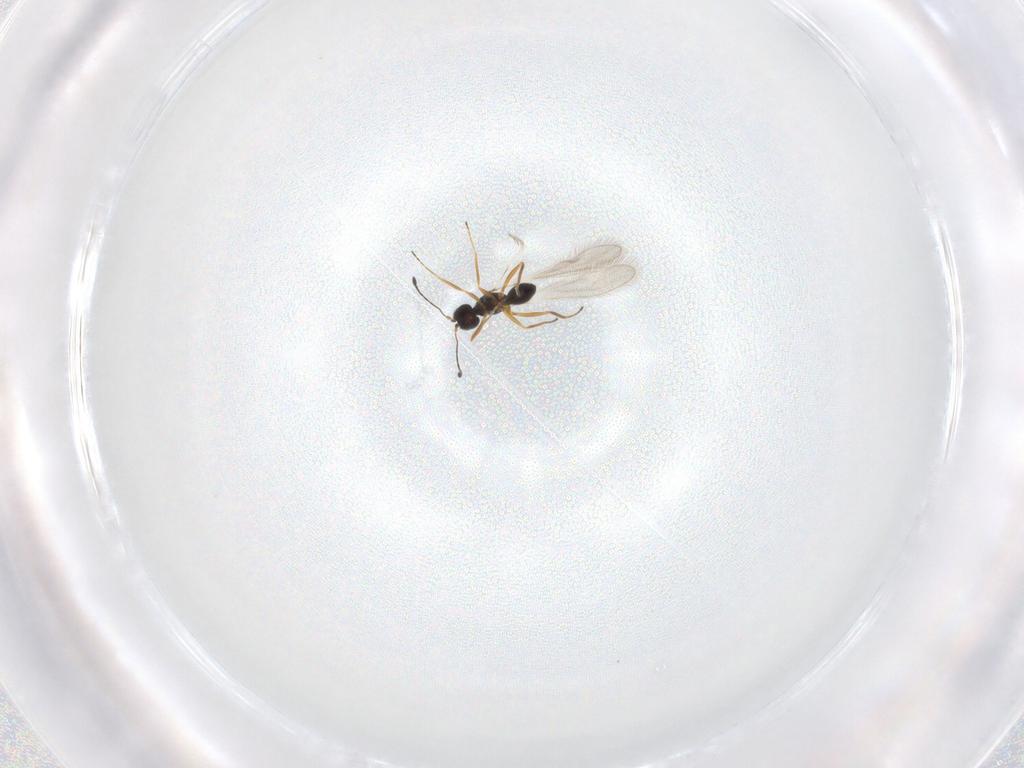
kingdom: Animalia
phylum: Arthropoda
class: Insecta
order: Hymenoptera
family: Mymaridae
